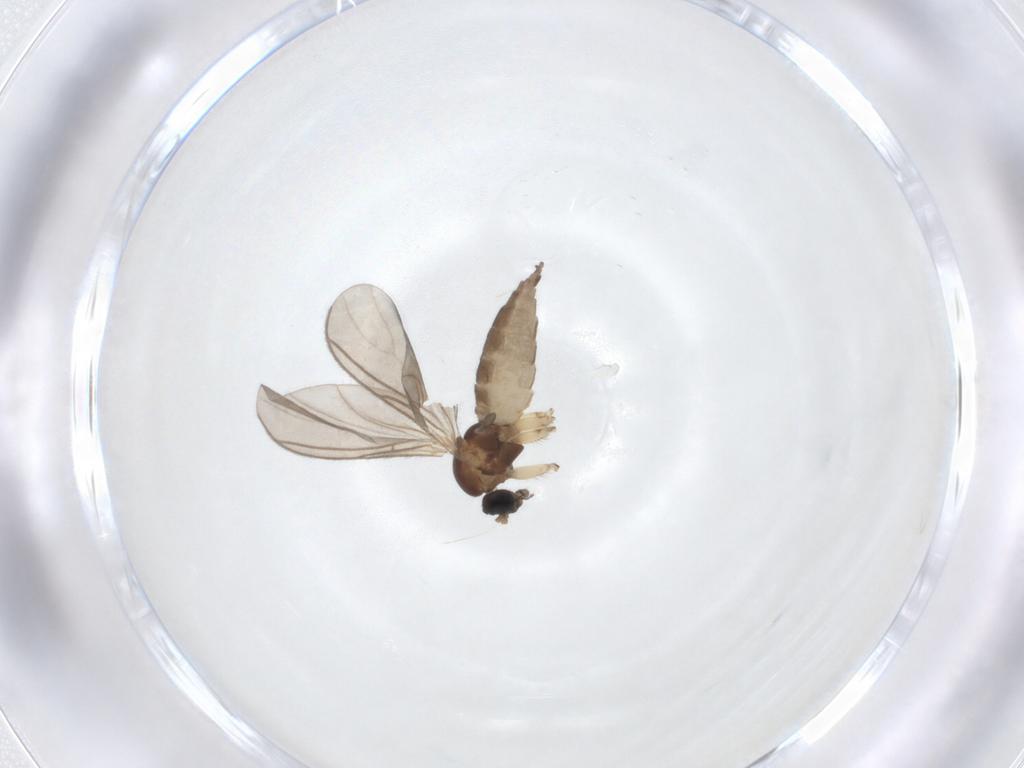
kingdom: Animalia
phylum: Arthropoda
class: Insecta
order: Diptera
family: Sciaridae
